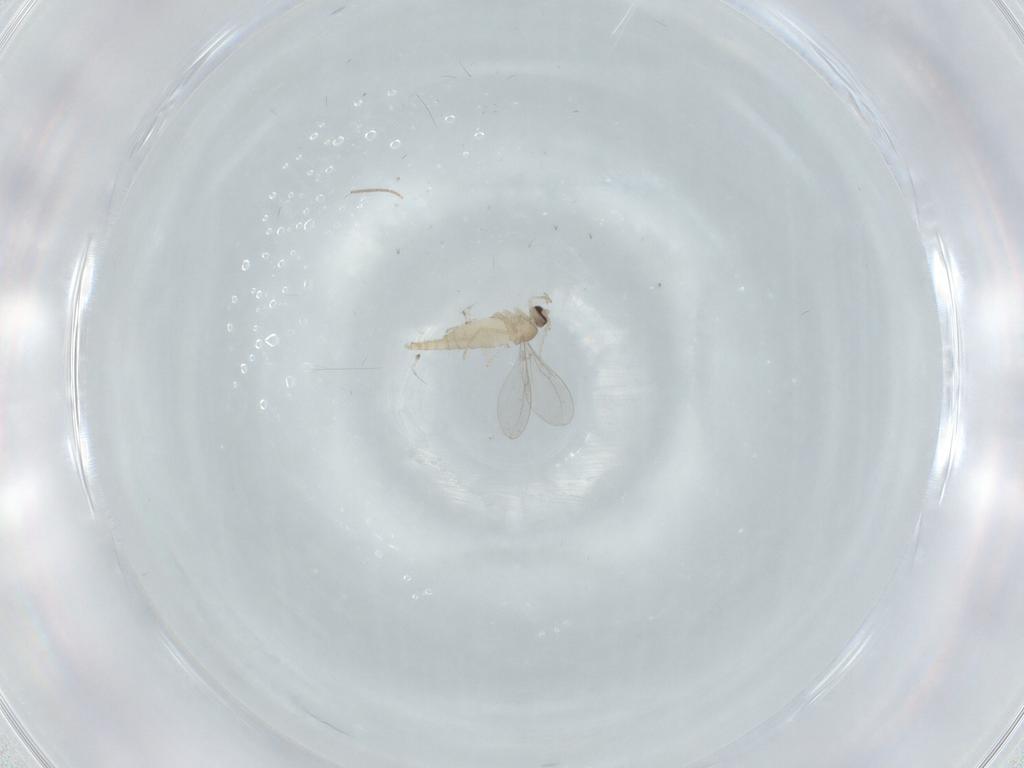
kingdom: Animalia
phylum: Arthropoda
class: Insecta
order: Diptera
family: Cecidomyiidae
